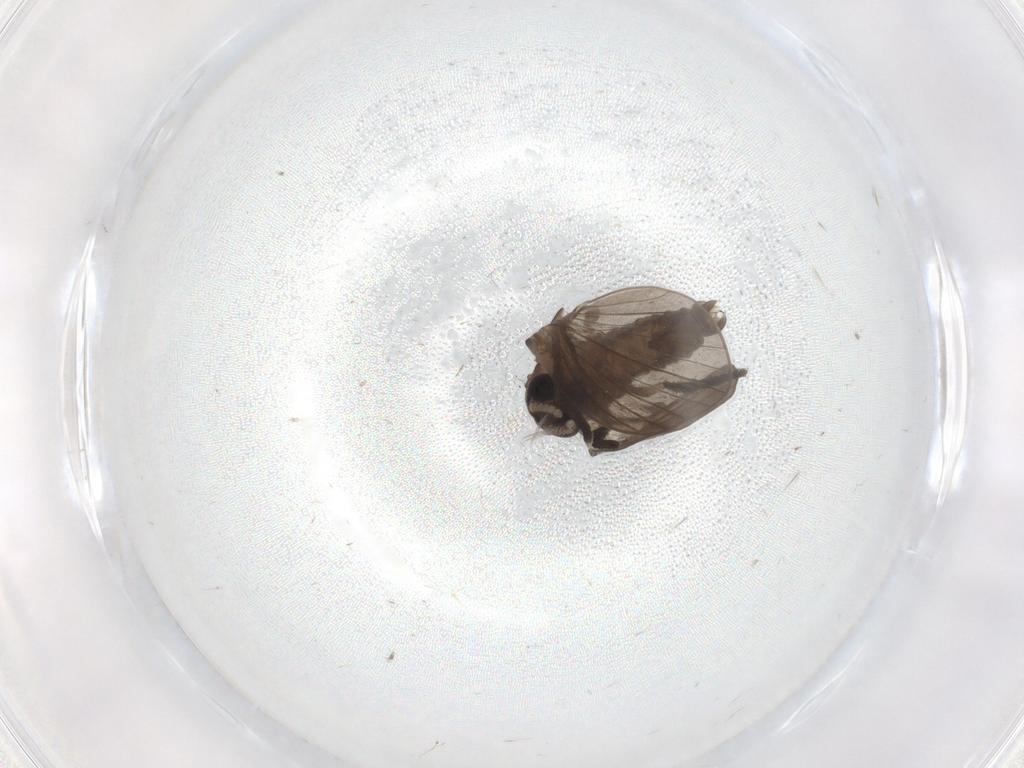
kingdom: Animalia
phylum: Arthropoda
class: Insecta
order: Diptera
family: Psychodidae
